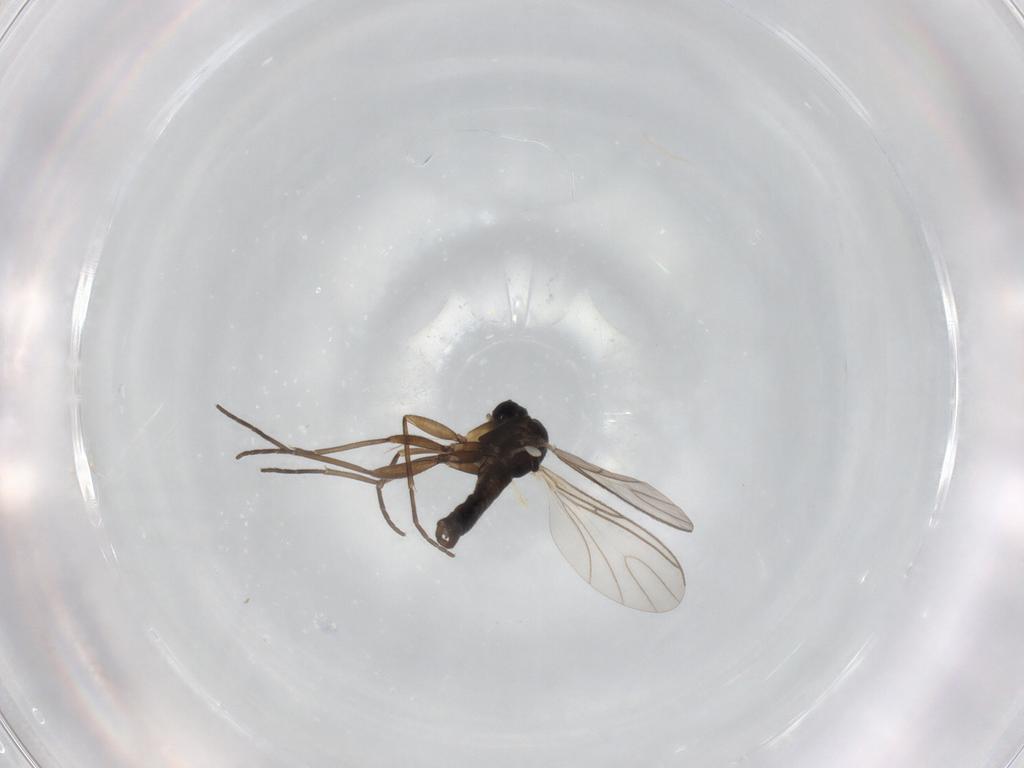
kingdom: Animalia
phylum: Arthropoda
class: Insecta
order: Diptera
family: Sciaridae
